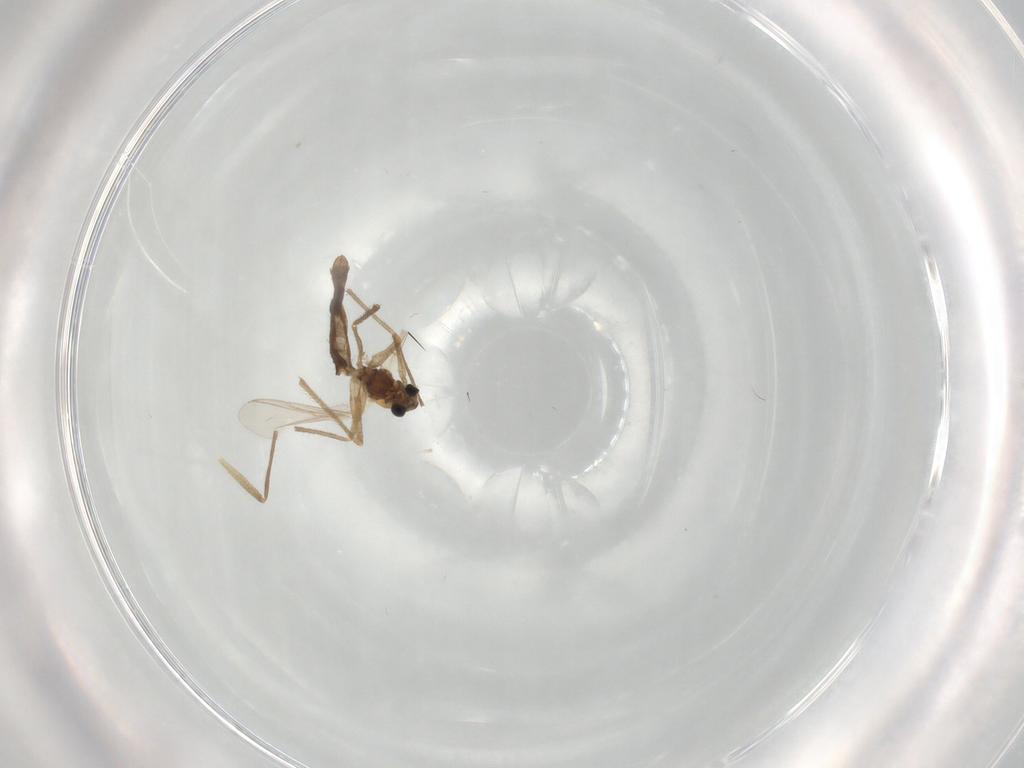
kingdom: Animalia
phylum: Arthropoda
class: Insecta
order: Diptera
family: Chironomidae
